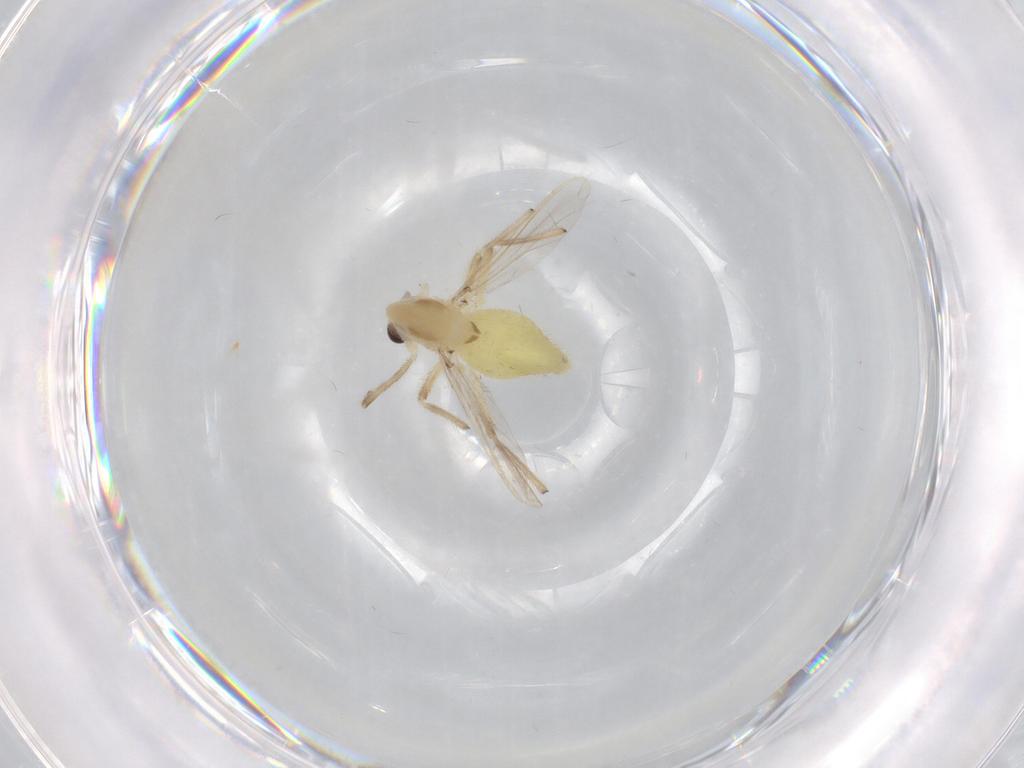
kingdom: Animalia
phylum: Arthropoda
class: Insecta
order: Diptera
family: Chironomidae
